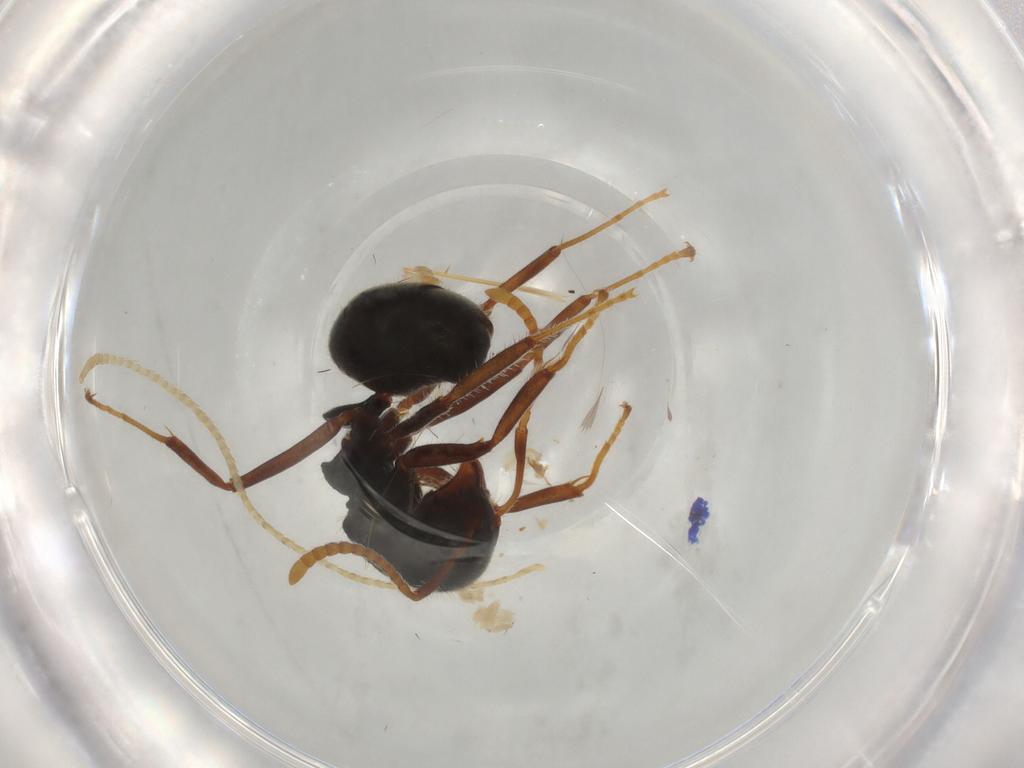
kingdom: Animalia
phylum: Arthropoda
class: Insecta
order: Hymenoptera
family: Formicidae
